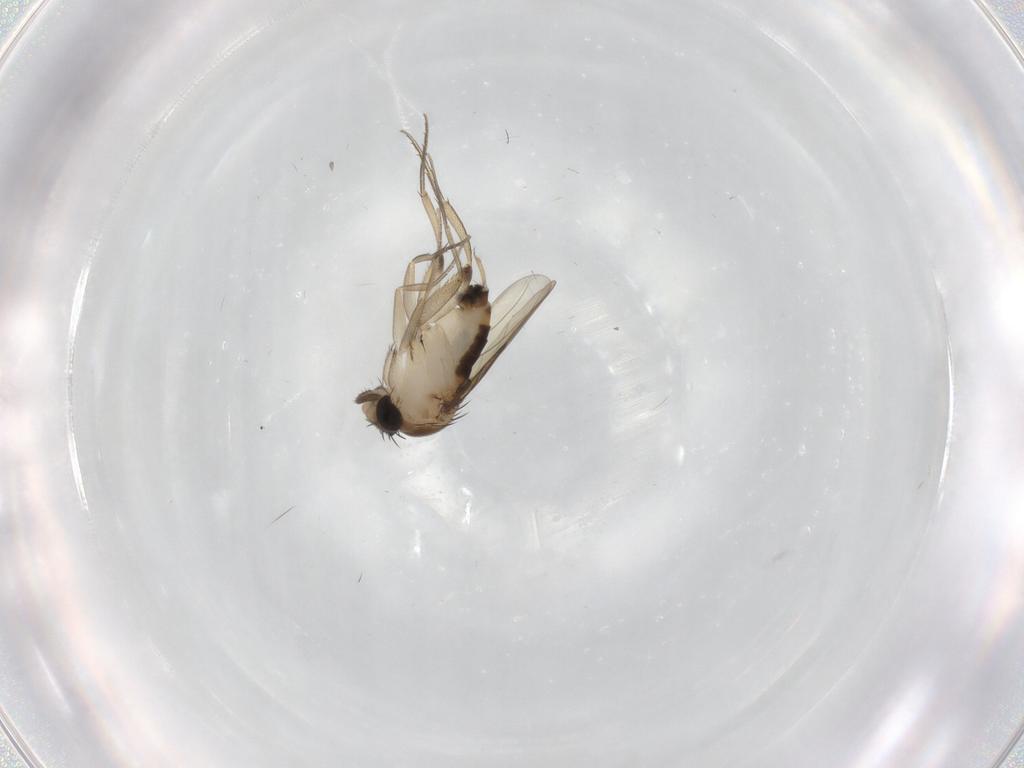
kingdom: Animalia
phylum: Arthropoda
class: Insecta
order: Diptera
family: Phoridae
